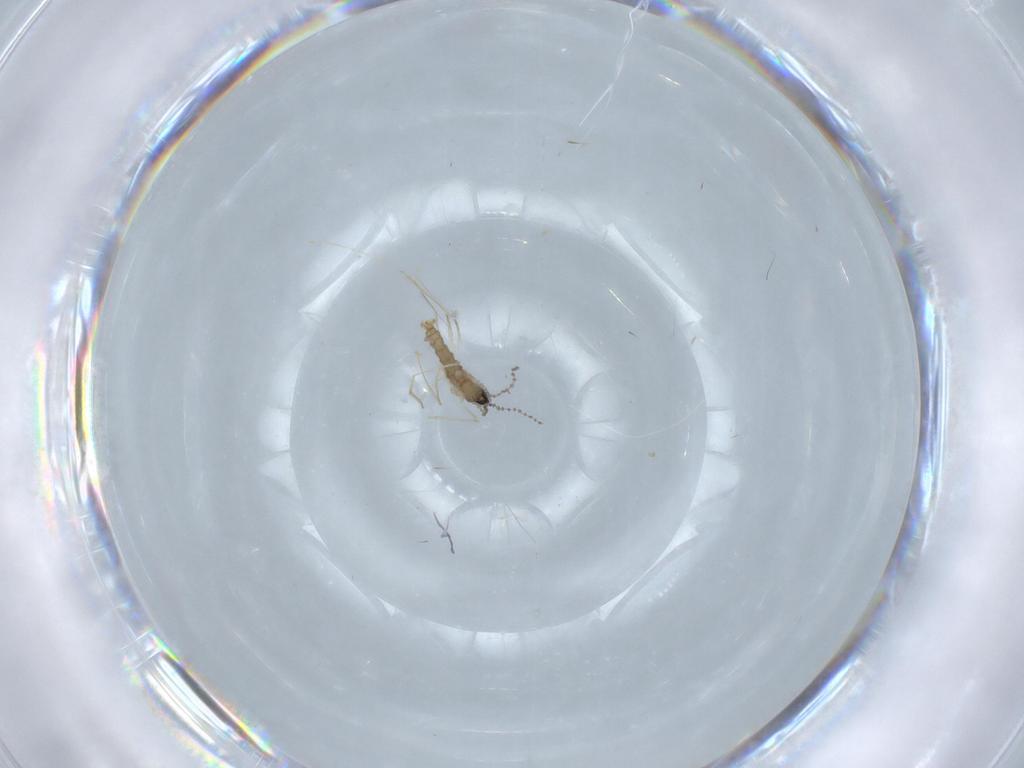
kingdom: Animalia
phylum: Arthropoda
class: Insecta
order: Diptera
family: Cecidomyiidae
